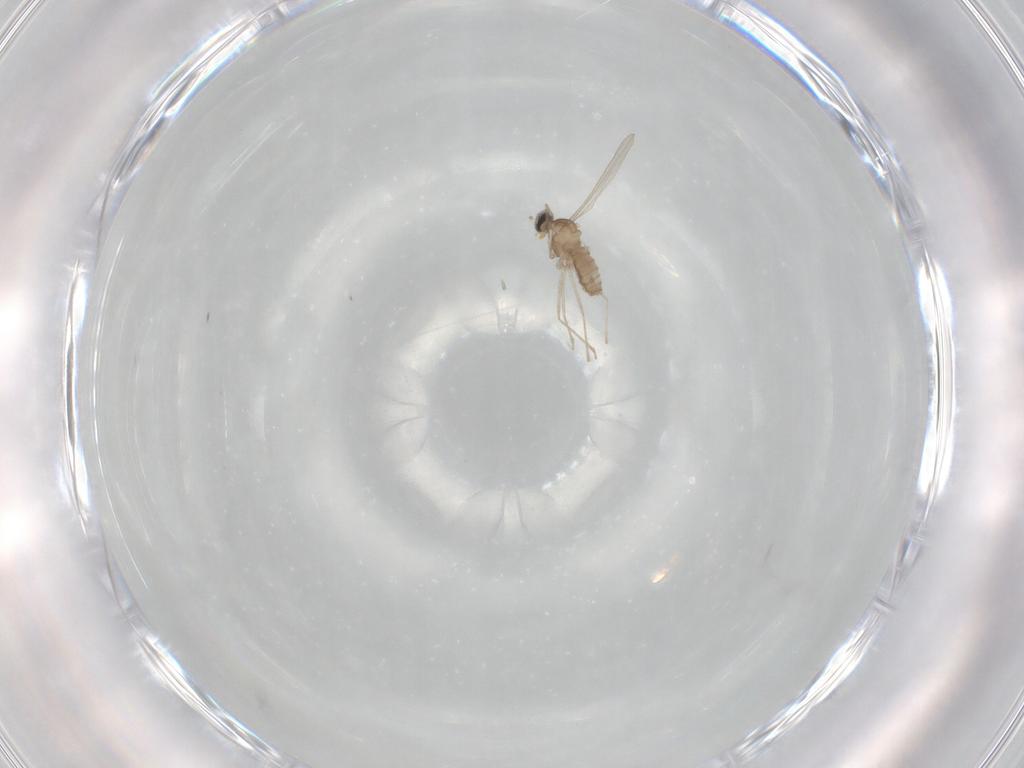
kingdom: Animalia
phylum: Arthropoda
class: Insecta
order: Diptera
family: Cecidomyiidae
